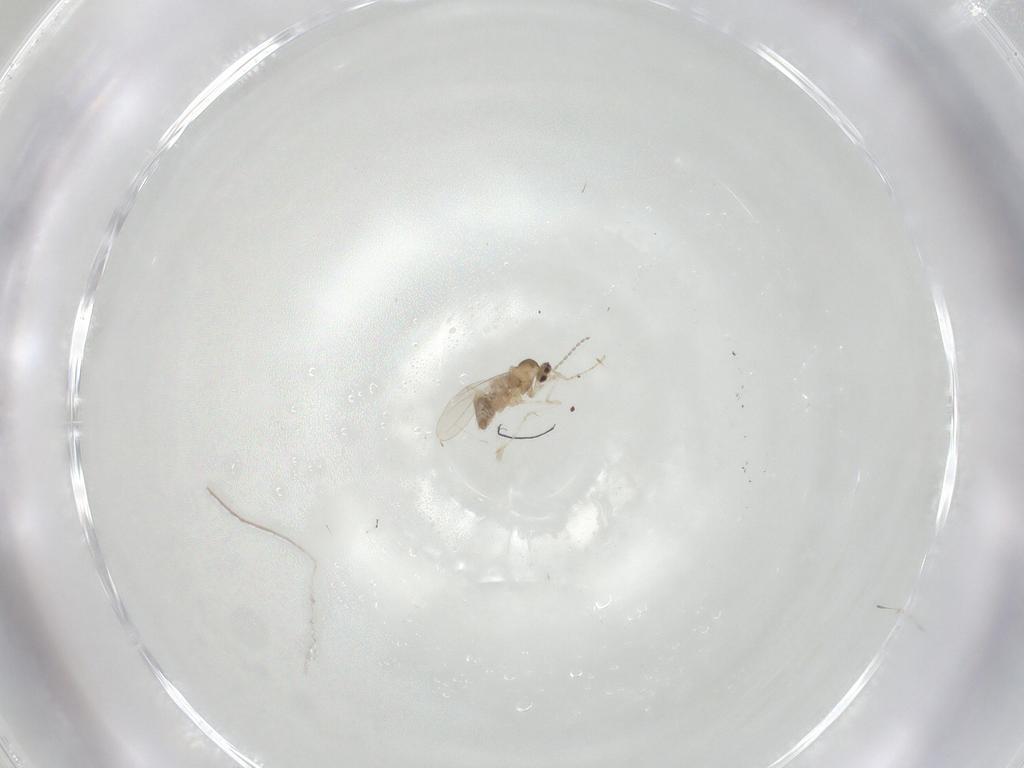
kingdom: Animalia
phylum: Arthropoda
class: Insecta
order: Diptera
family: Cecidomyiidae
